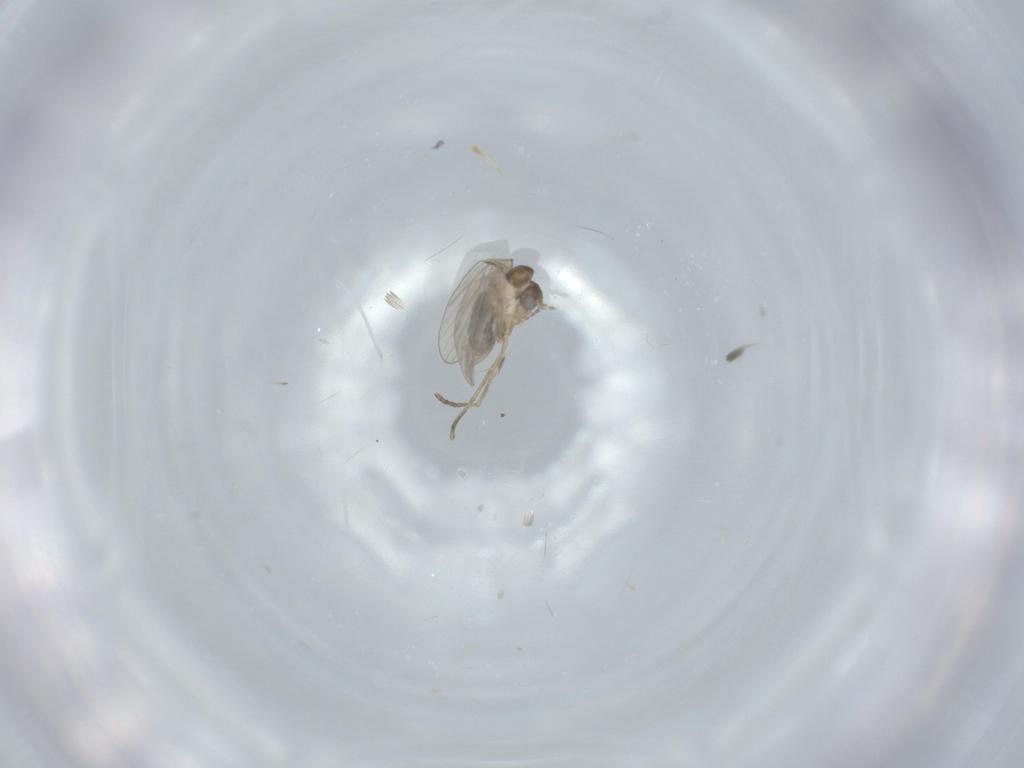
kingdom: Animalia
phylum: Arthropoda
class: Insecta
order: Diptera
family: Psychodidae
